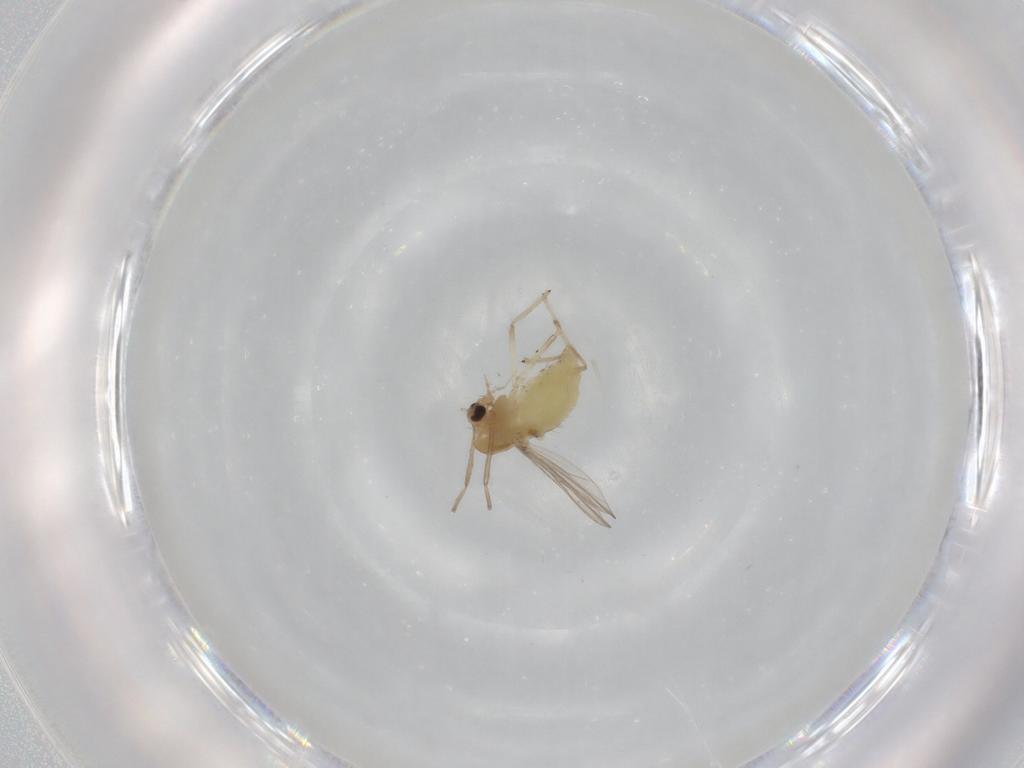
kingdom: Animalia
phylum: Arthropoda
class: Insecta
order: Diptera
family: Chironomidae
